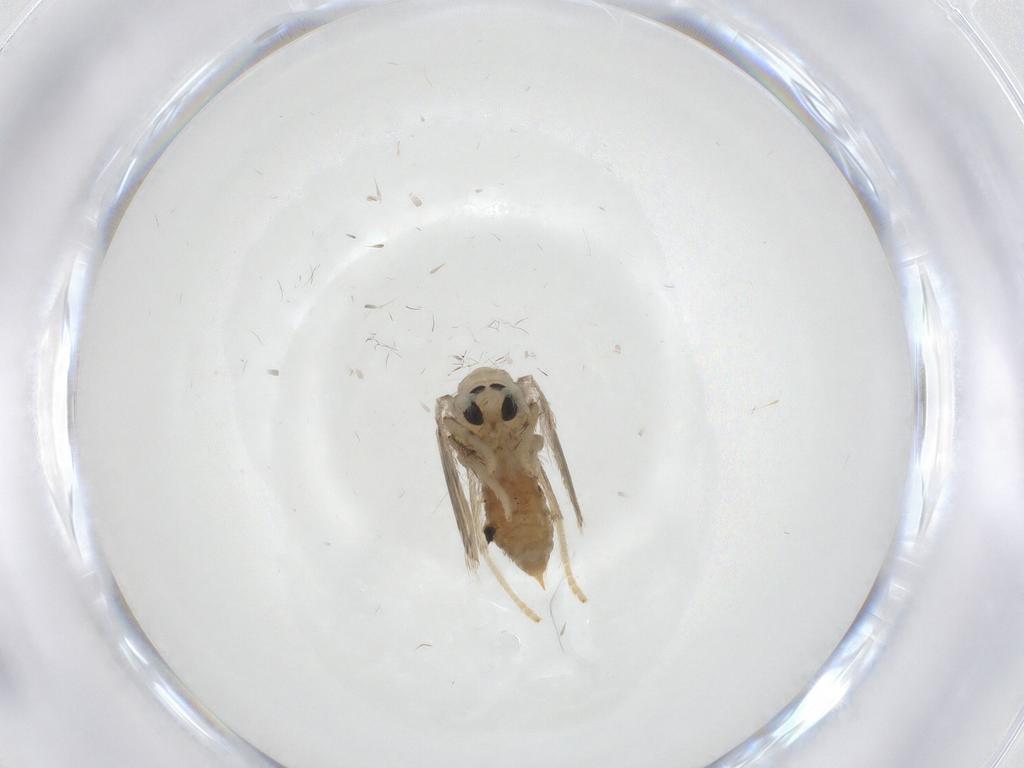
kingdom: Animalia
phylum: Arthropoda
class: Insecta
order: Diptera
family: Psychodidae
